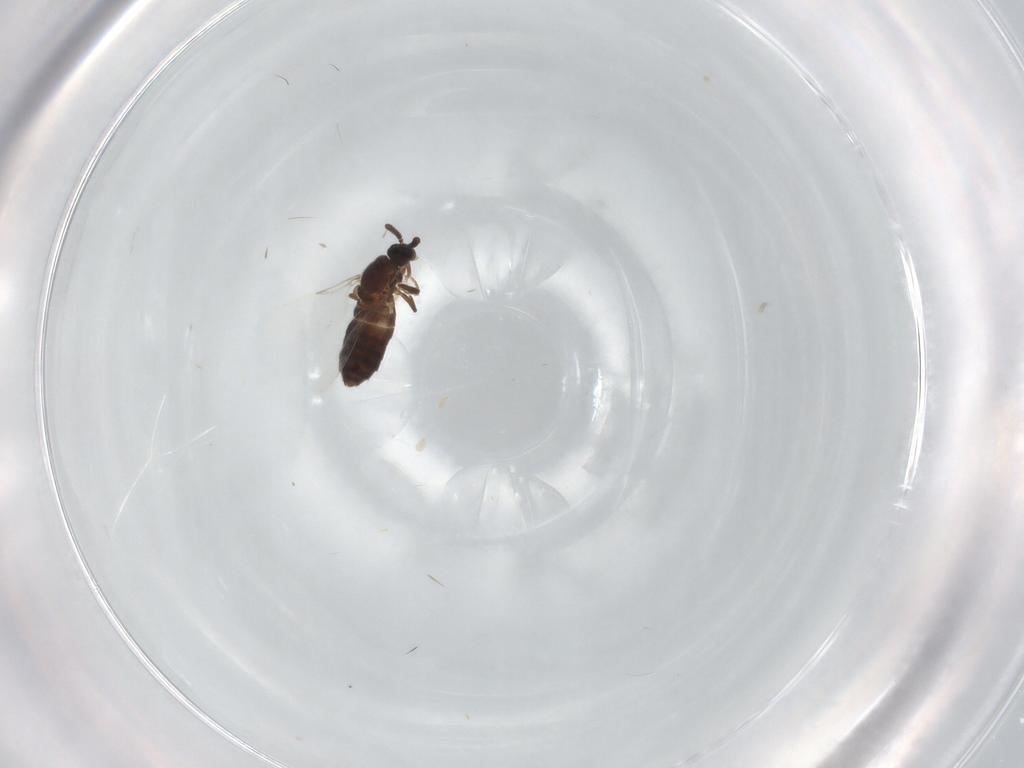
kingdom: Animalia
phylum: Arthropoda
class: Insecta
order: Diptera
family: Scatopsidae
